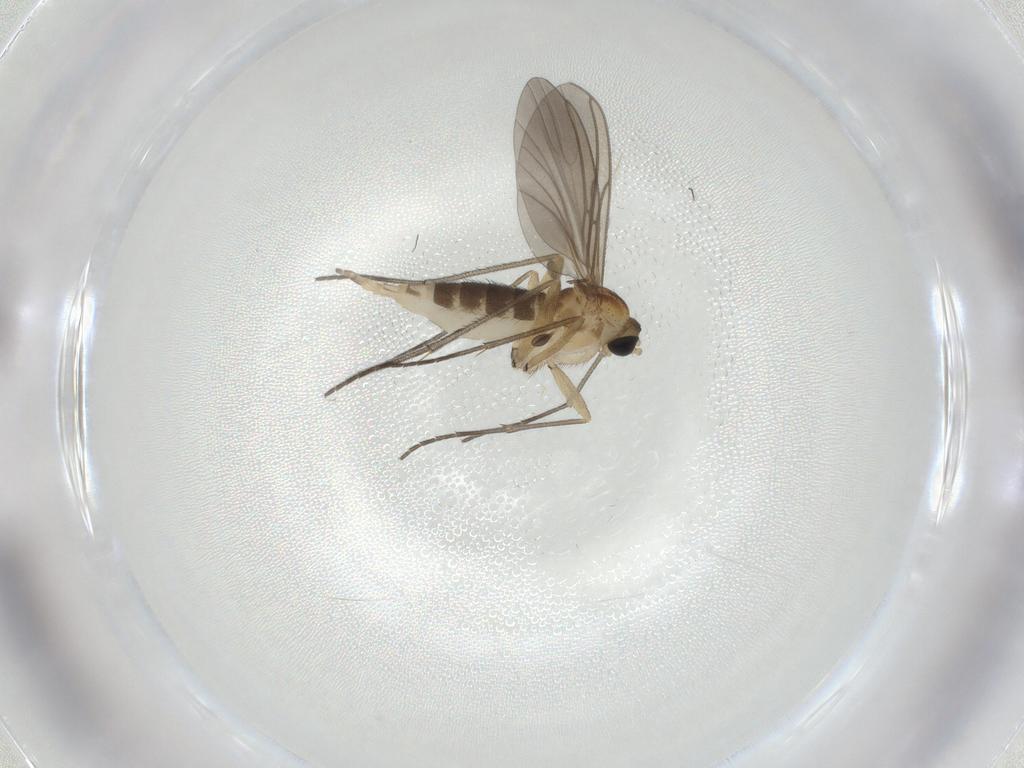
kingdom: Animalia
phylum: Arthropoda
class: Insecta
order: Diptera
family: Sciaridae
